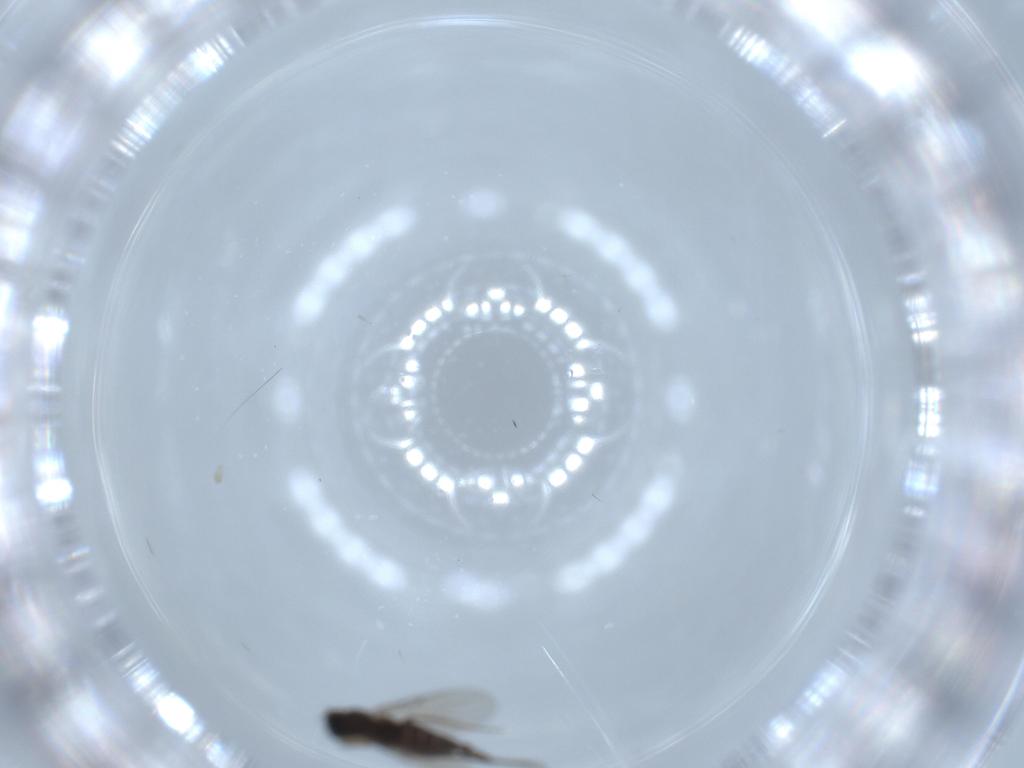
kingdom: Animalia
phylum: Arthropoda
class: Insecta
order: Diptera
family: Phoridae
